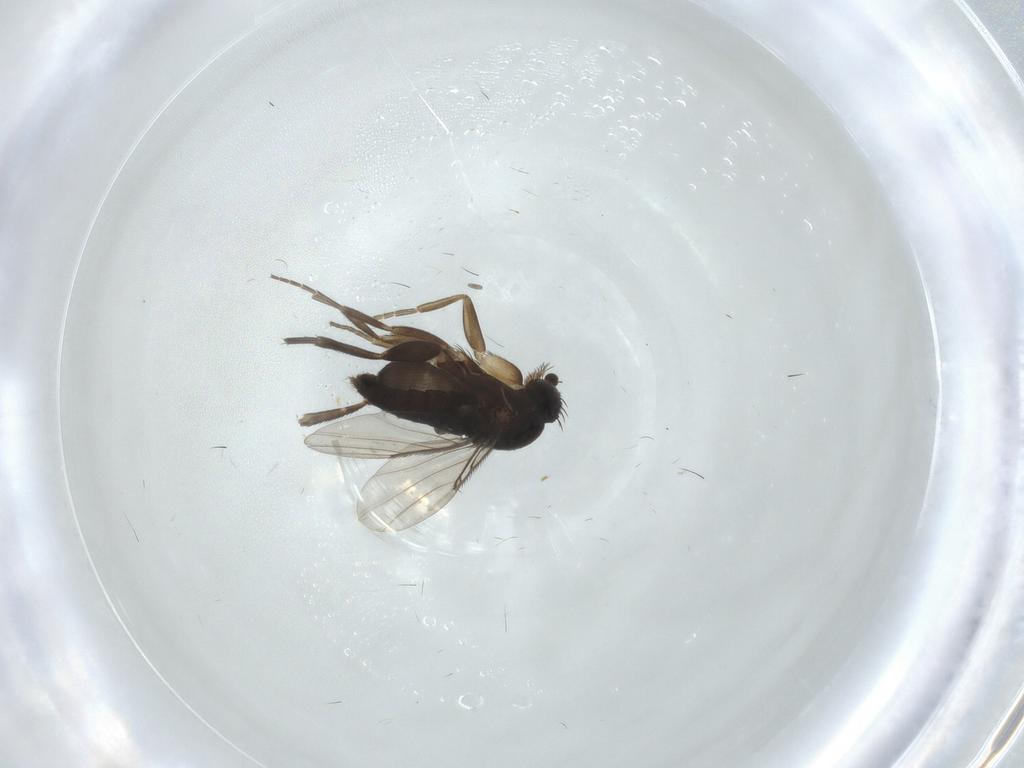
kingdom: Animalia
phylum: Arthropoda
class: Insecta
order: Diptera
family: Phoridae
